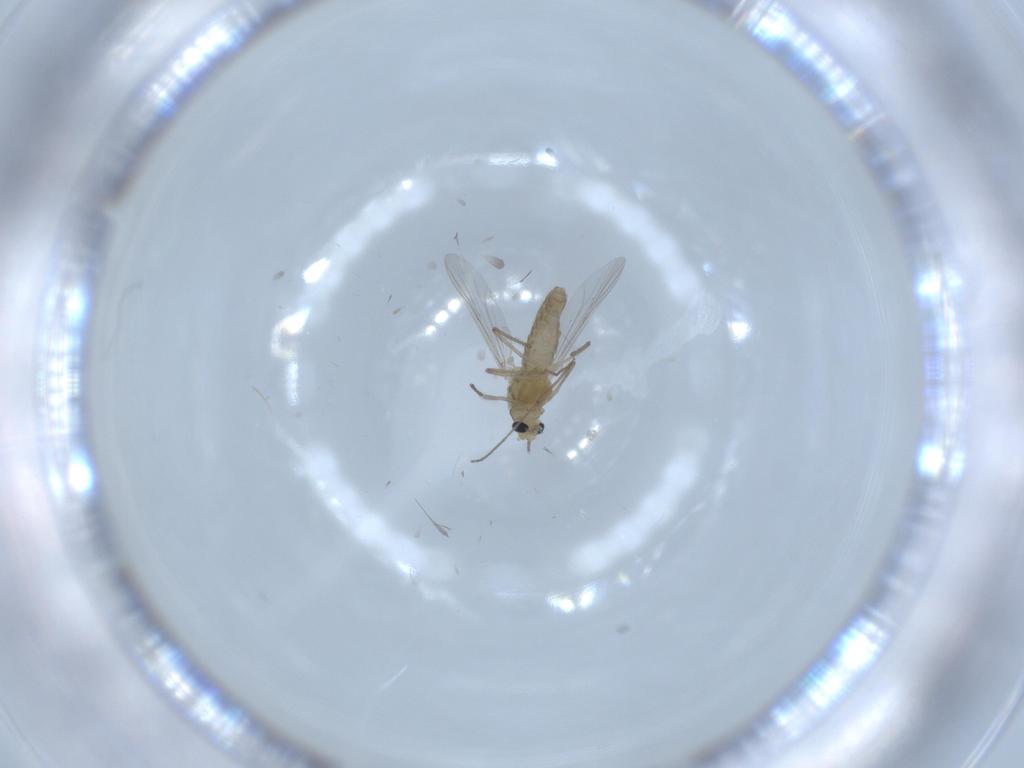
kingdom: Animalia
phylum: Arthropoda
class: Insecta
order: Diptera
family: Chironomidae
